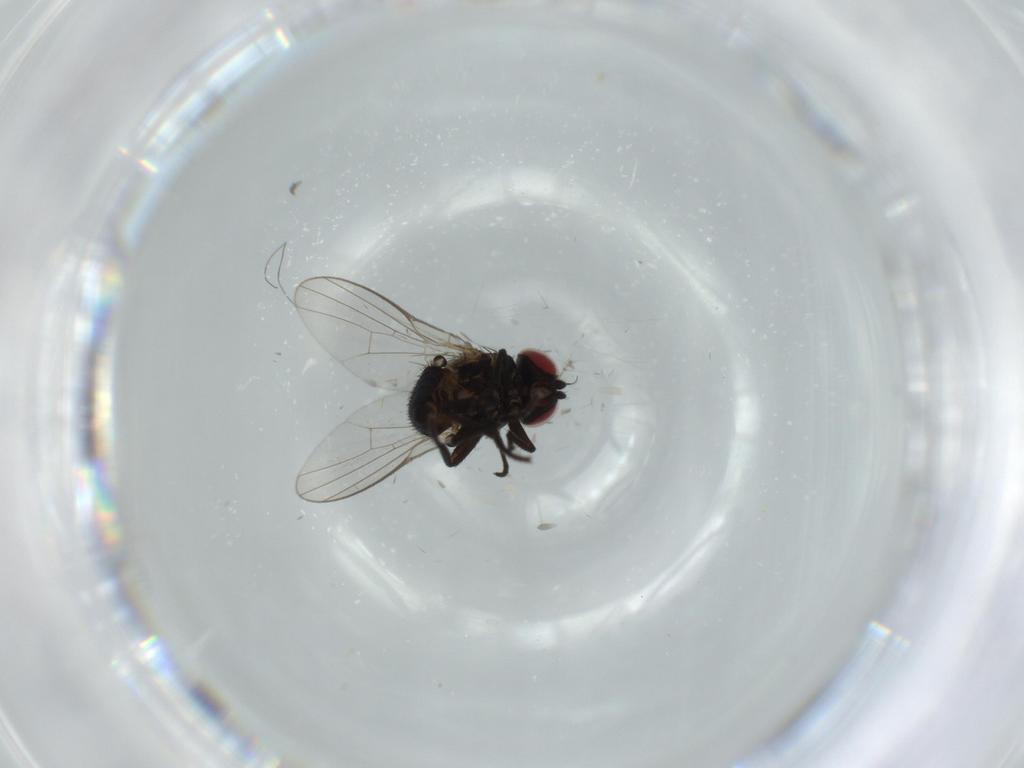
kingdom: Animalia
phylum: Arthropoda
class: Insecta
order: Diptera
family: Agromyzidae
